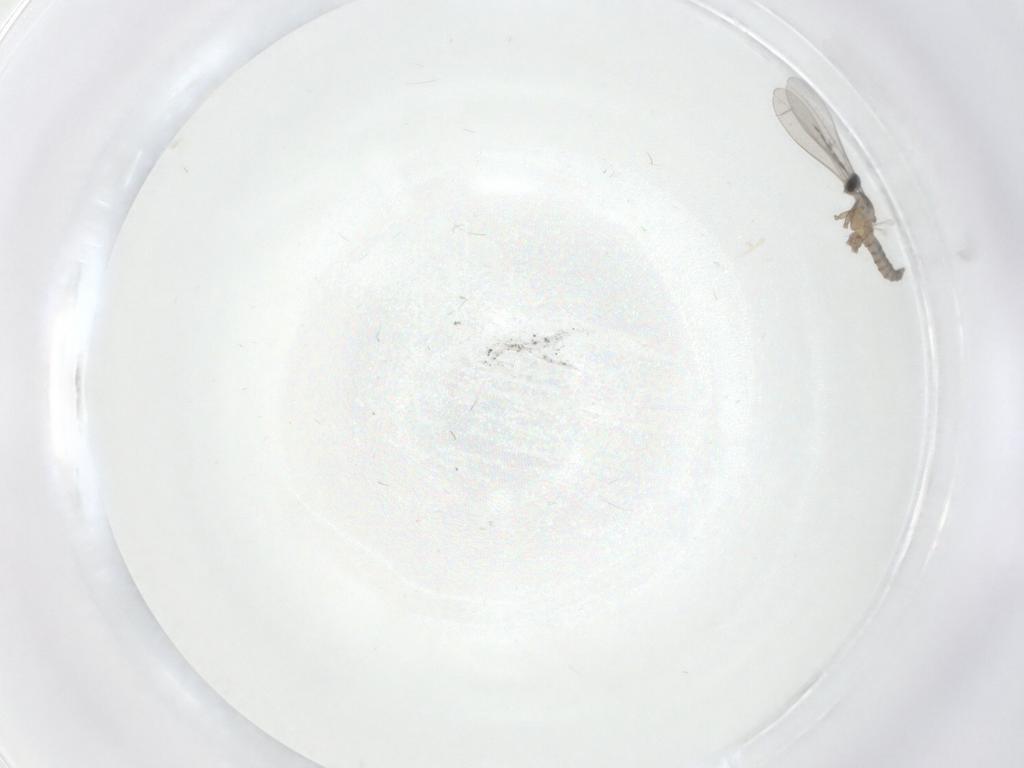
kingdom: Animalia
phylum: Arthropoda
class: Insecta
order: Diptera
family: Cecidomyiidae
